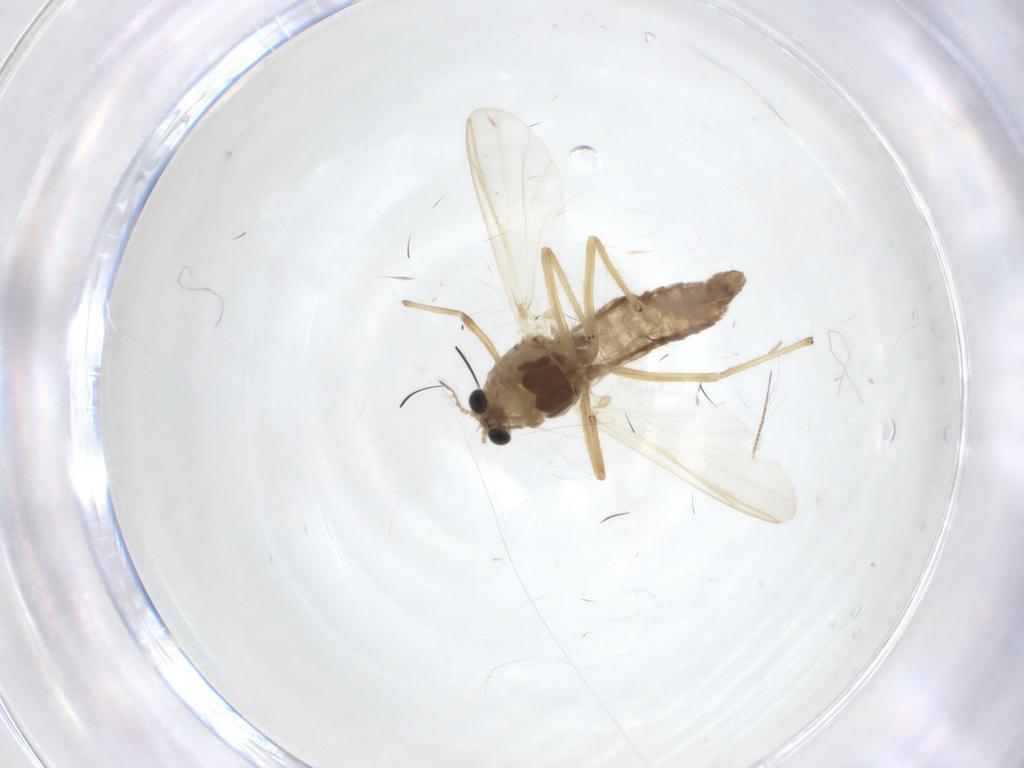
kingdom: Animalia
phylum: Arthropoda
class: Insecta
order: Diptera
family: Chironomidae
